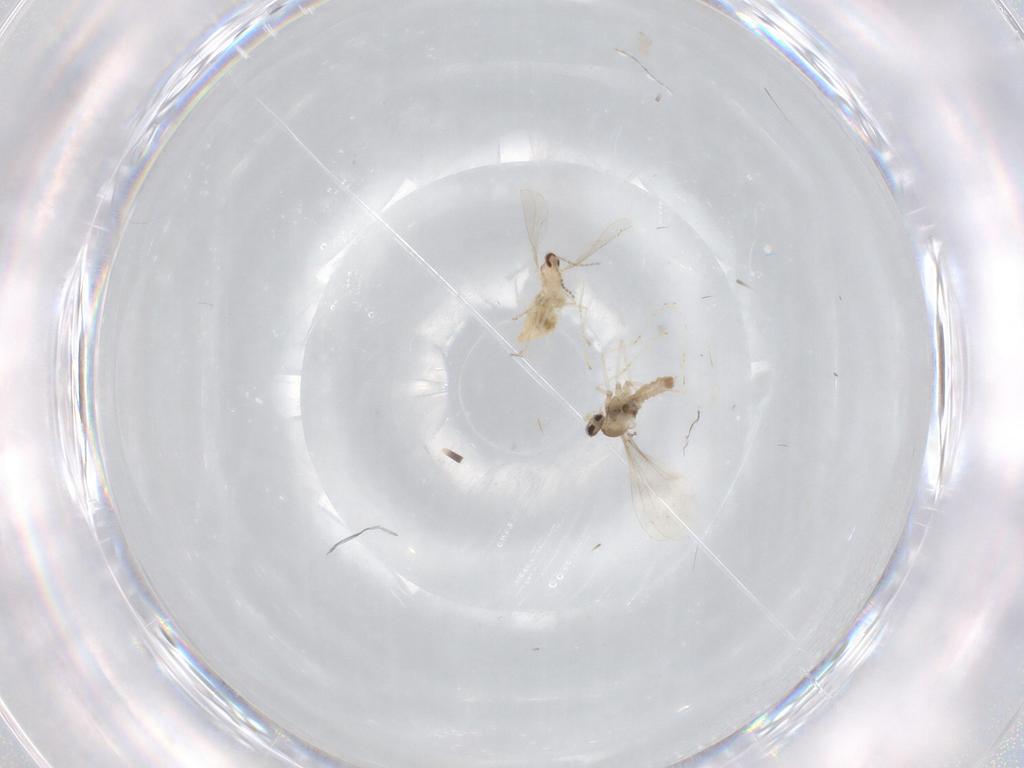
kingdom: Animalia
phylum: Arthropoda
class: Insecta
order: Diptera
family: Cecidomyiidae
